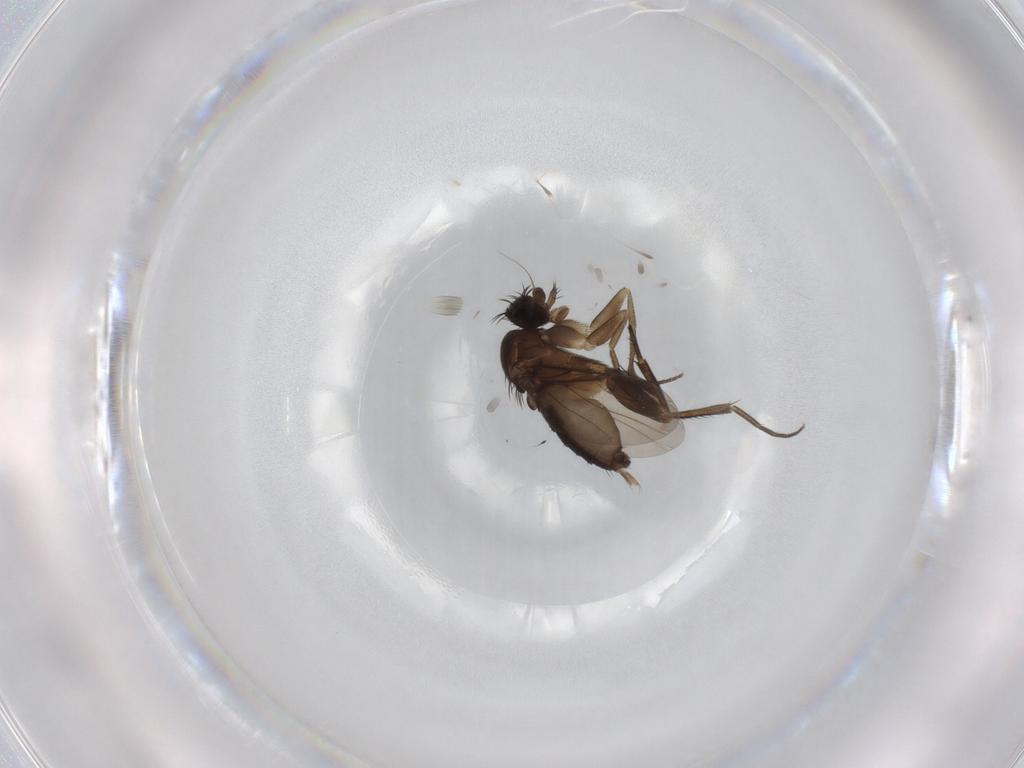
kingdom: Animalia
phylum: Arthropoda
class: Insecta
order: Diptera
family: Phoridae
